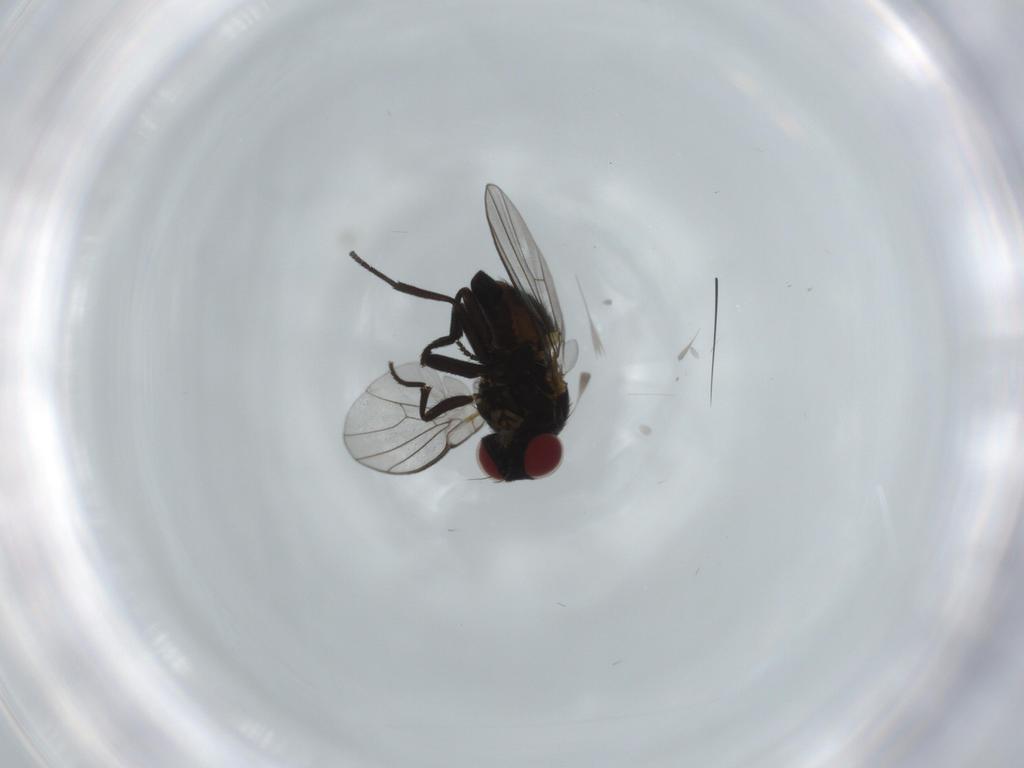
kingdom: Animalia
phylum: Arthropoda
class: Insecta
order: Diptera
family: Agromyzidae
